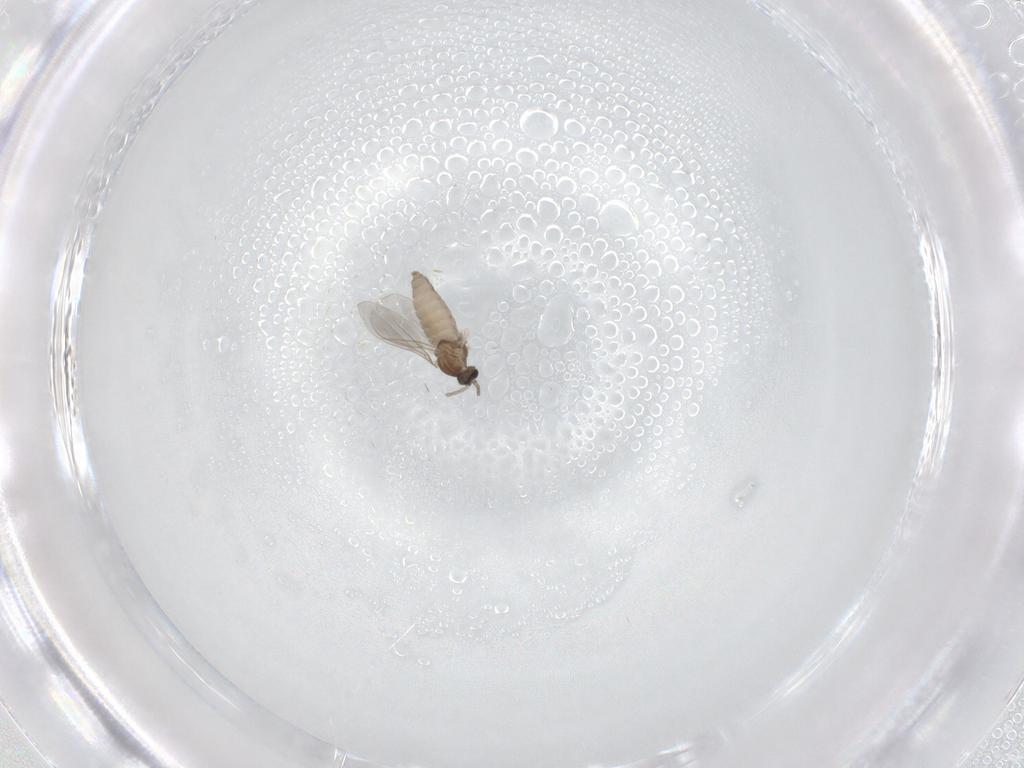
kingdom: Animalia
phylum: Arthropoda
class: Insecta
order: Diptera
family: Cecidomyiidae
